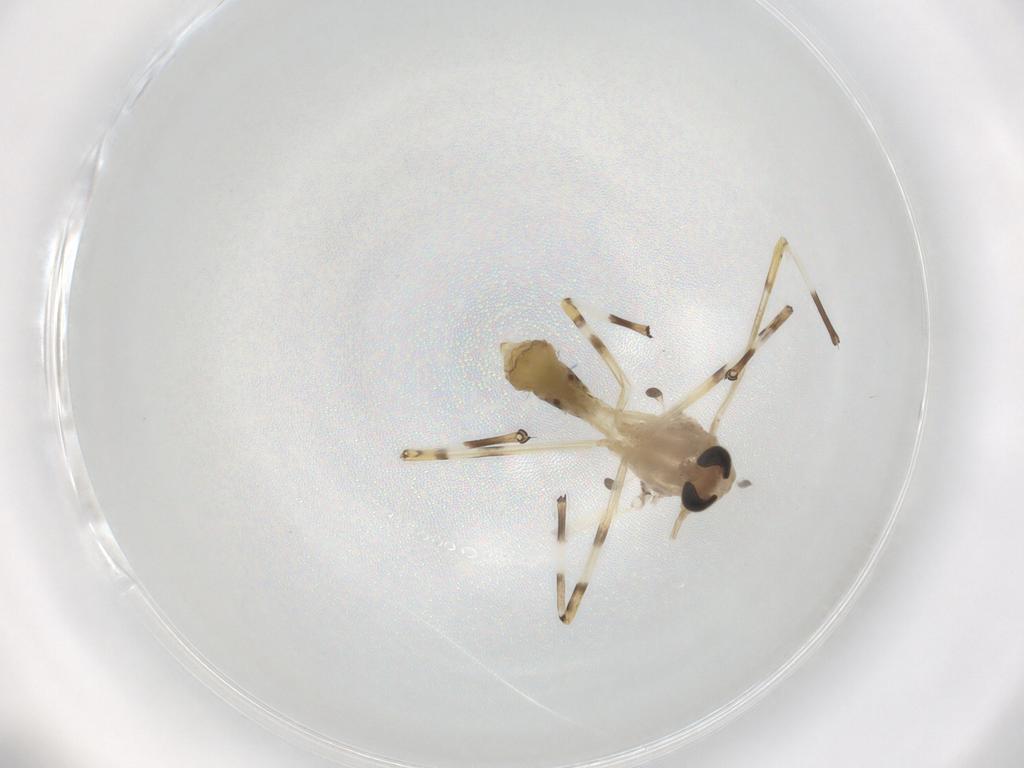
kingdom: Animalia
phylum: Arthropoda
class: Insecta
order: Diptera
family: Chironomidae
